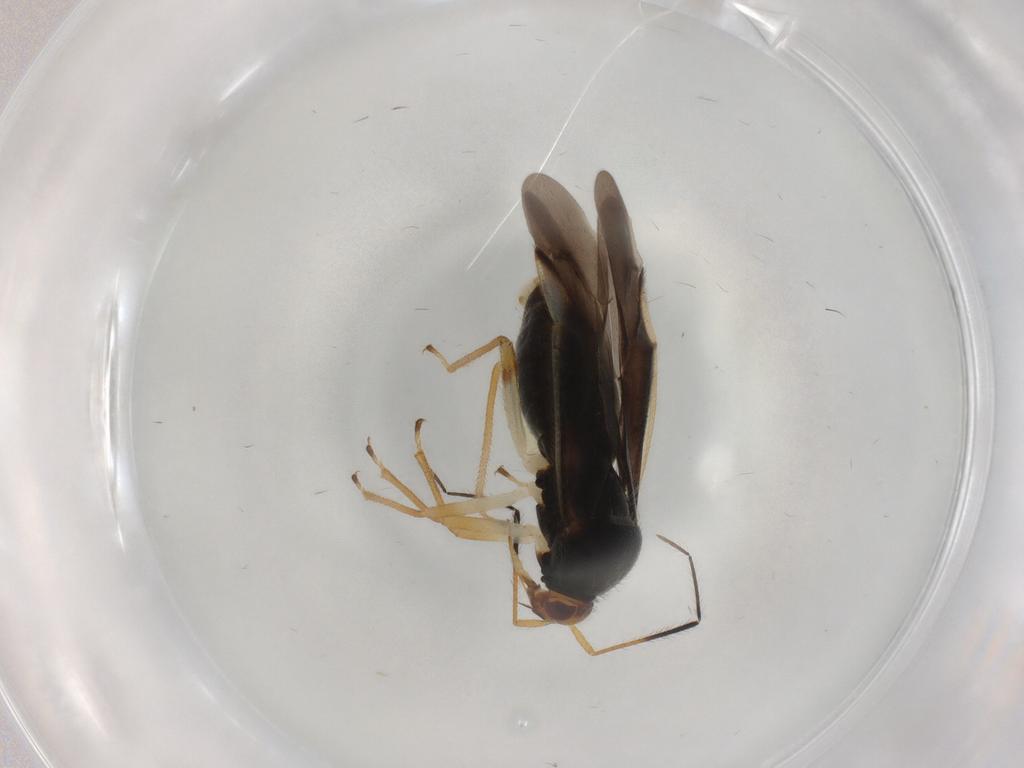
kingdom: Animalia
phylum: Arthropoda
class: Insecta
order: Hemiptera
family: Miridae
